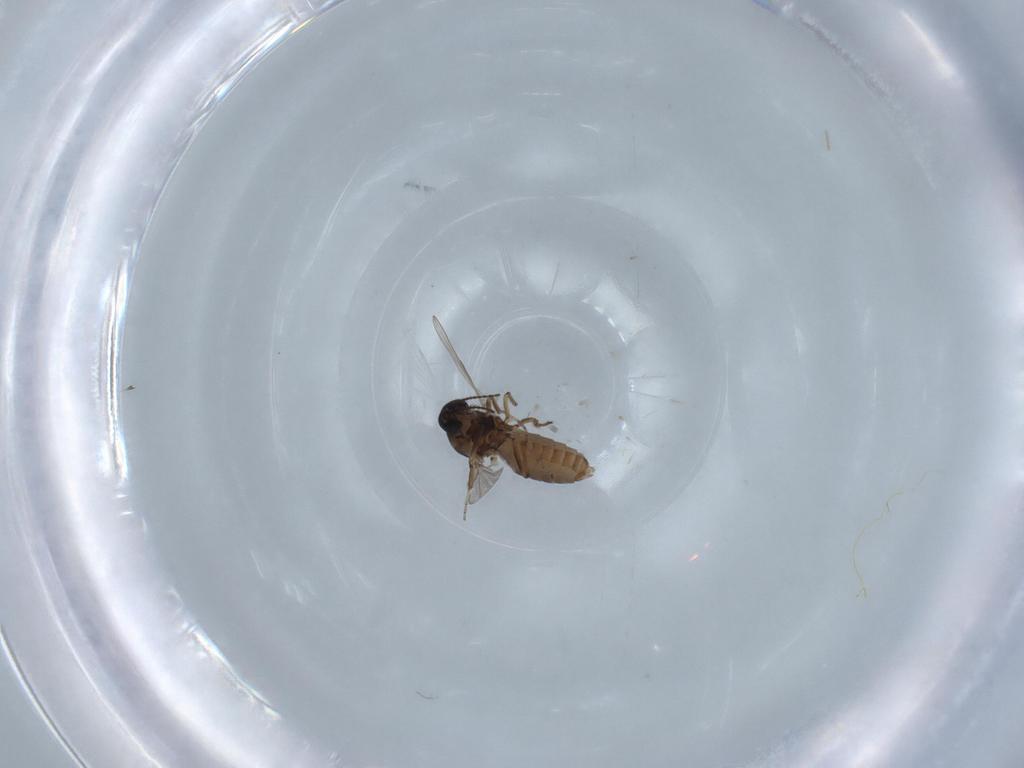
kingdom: Animalia
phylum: Arthropoda
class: Insecta
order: Diptera
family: Ceratopogonidae
